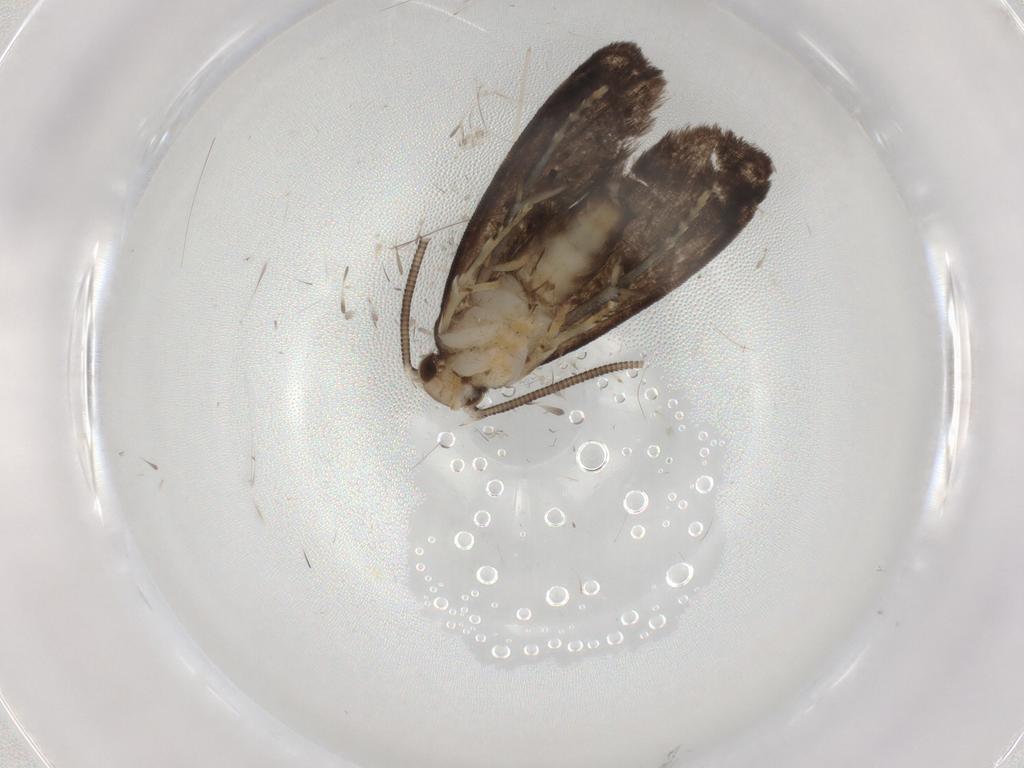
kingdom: Animalia
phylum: Arthropoda
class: Insecta
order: Lepidoptera
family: Dryadaulidae
